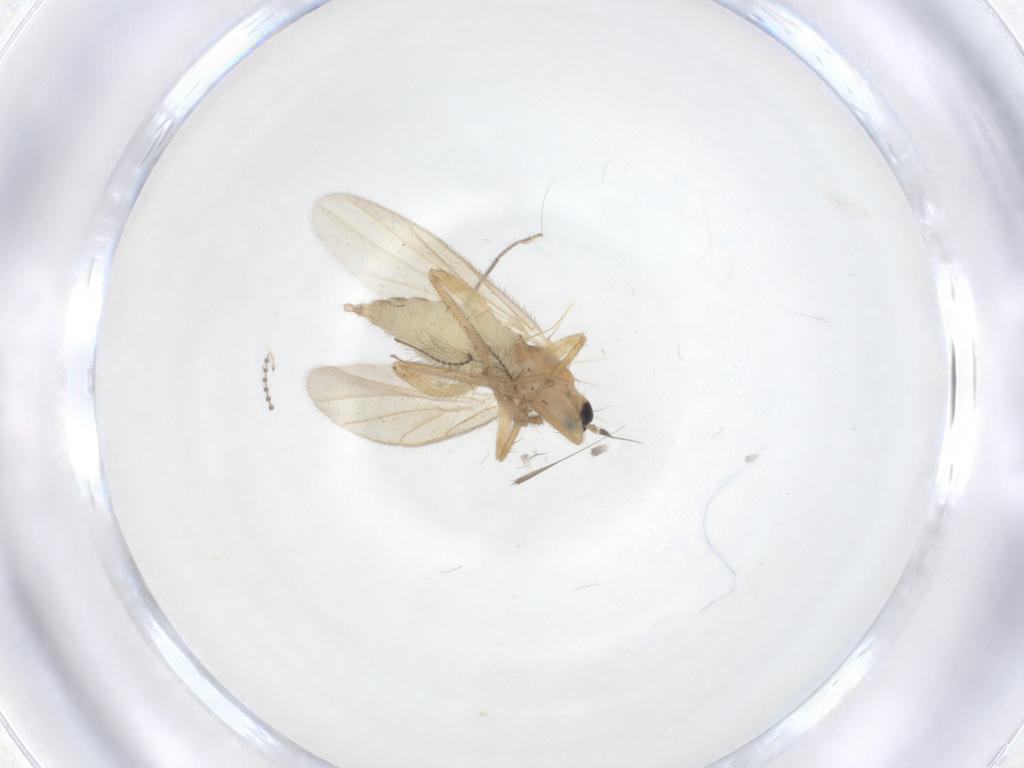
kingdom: Animalia
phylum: Arthropoda
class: Insecta
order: Diptera
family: Hybotidae
